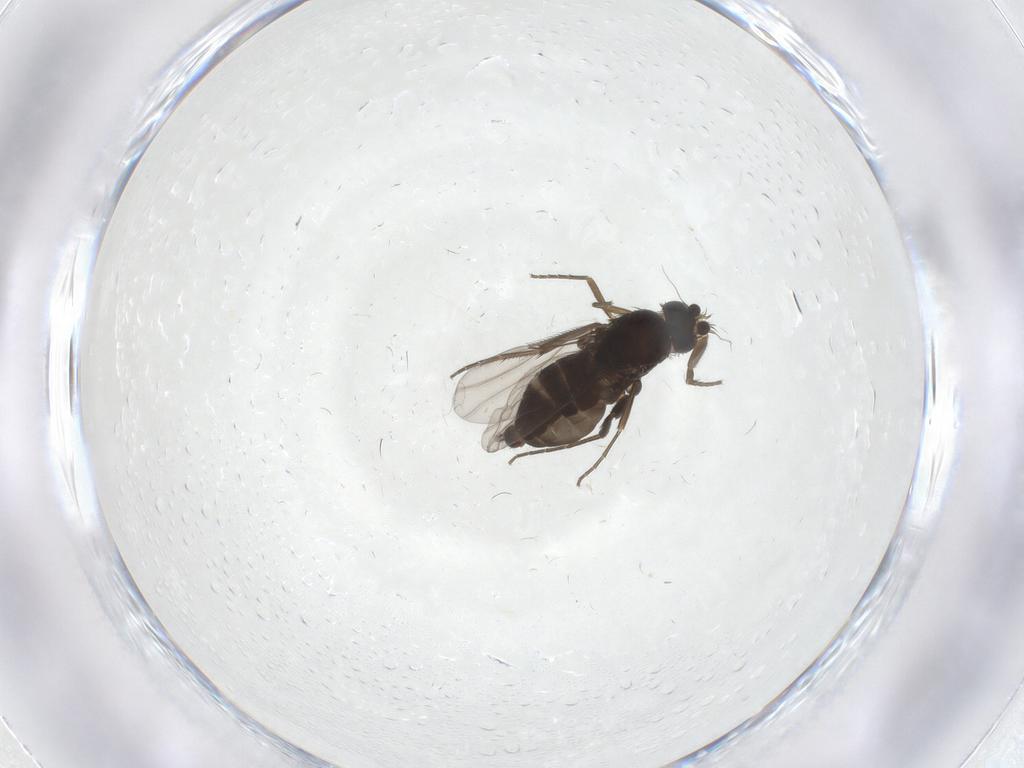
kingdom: Animalia
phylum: Arthropoda
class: Insecta
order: Diptera
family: Phoridae
